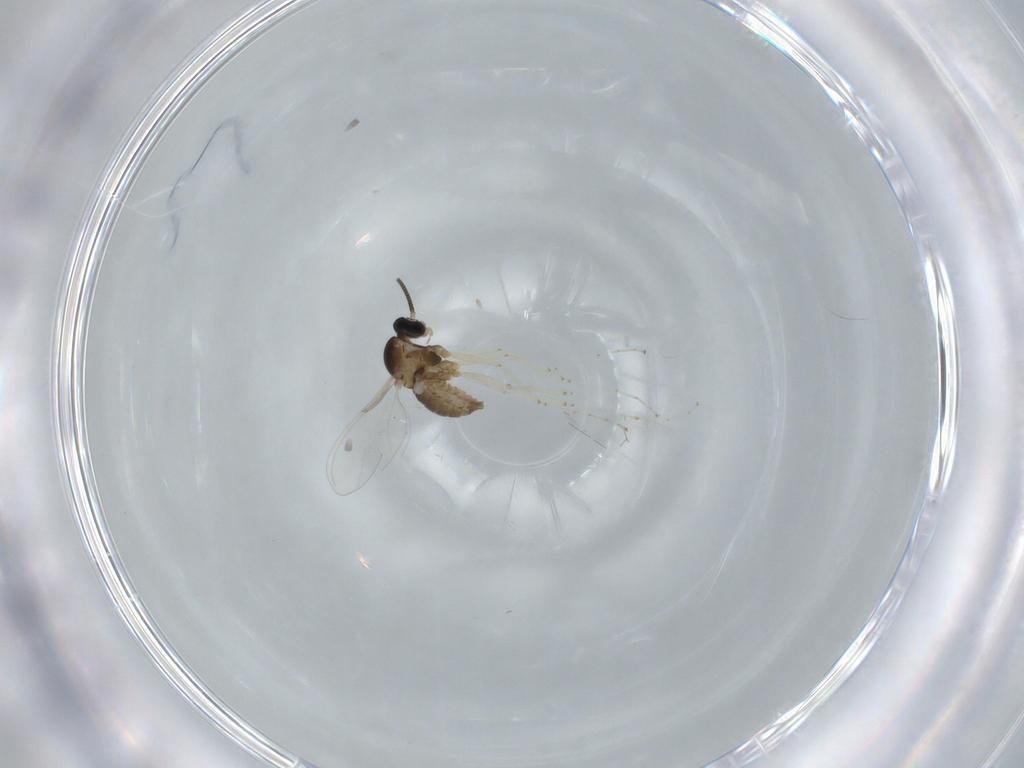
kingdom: Animalia
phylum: Arthropoda
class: Insecta
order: Diptera
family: Cecidomyiidae
